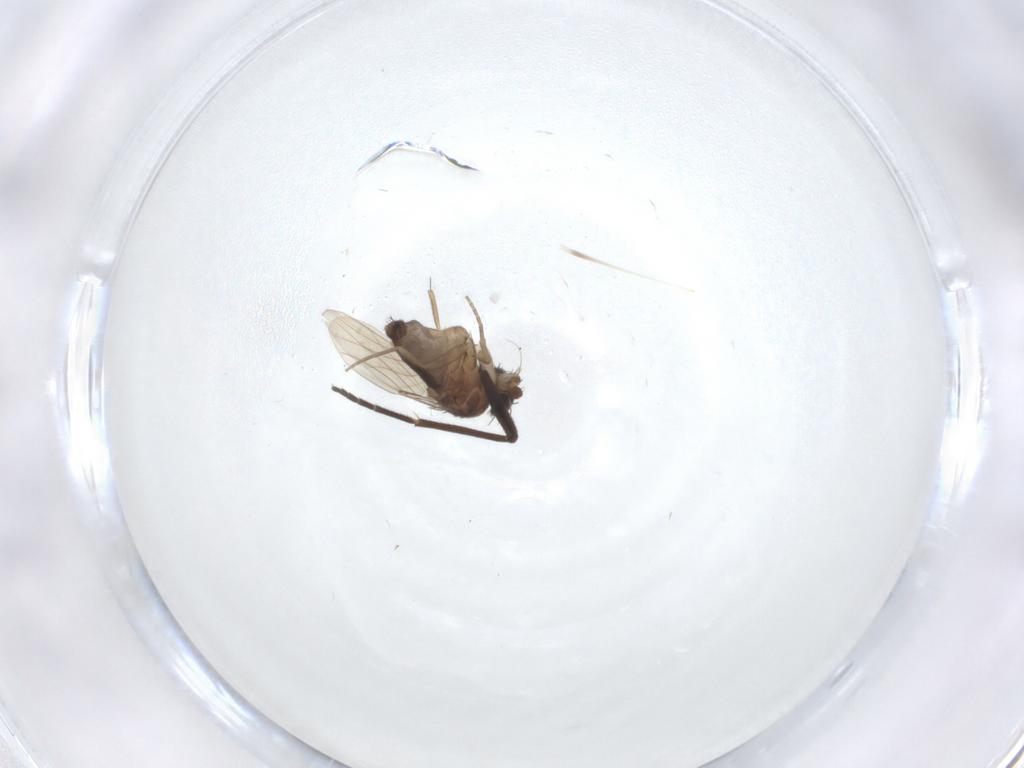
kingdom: Animalia
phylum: Arthropoda
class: Insecta
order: Diptera
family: Phoridae
